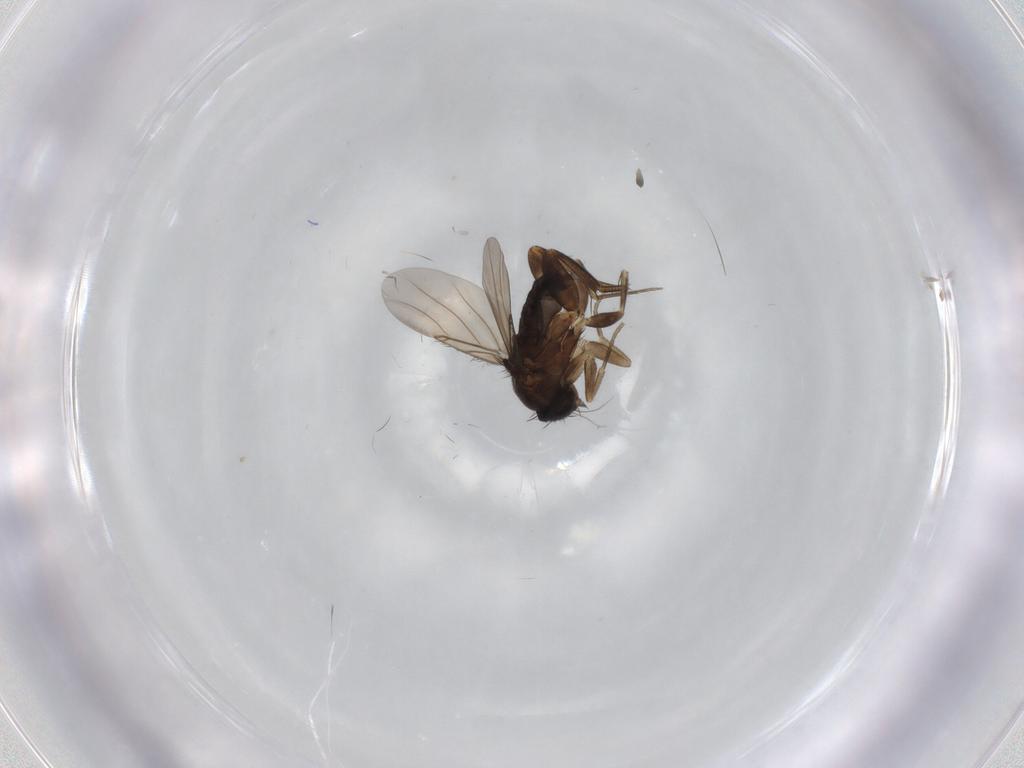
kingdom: Animalia
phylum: Arthropoda
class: Insecta
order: Diptera
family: Phoridae
